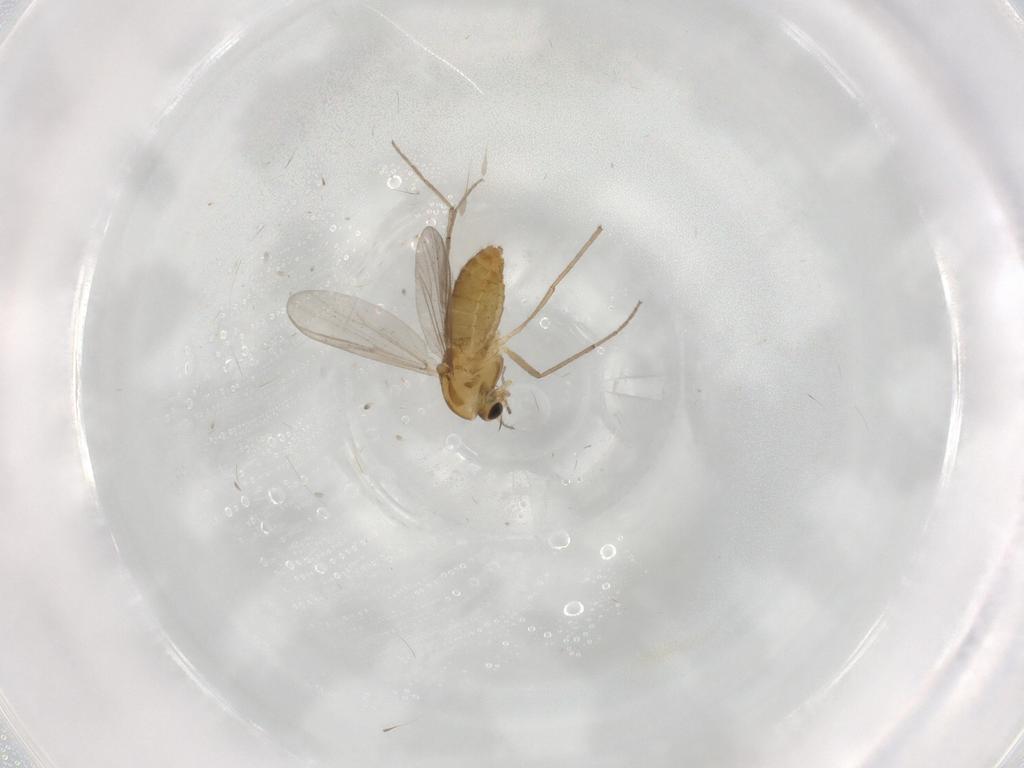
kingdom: Animalia
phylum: Arthropoda
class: Insecta
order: Diptera
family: Chironomidae
